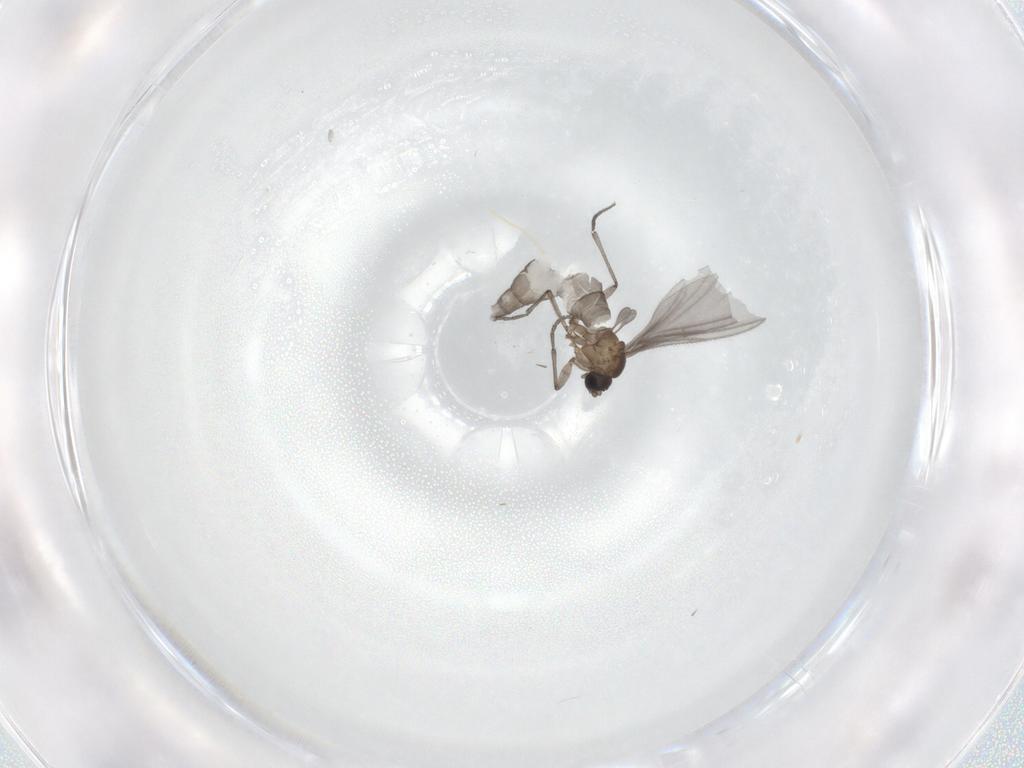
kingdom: Animalia
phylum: Arthropoda
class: Insecta
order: Diptera
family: Sciaridae
